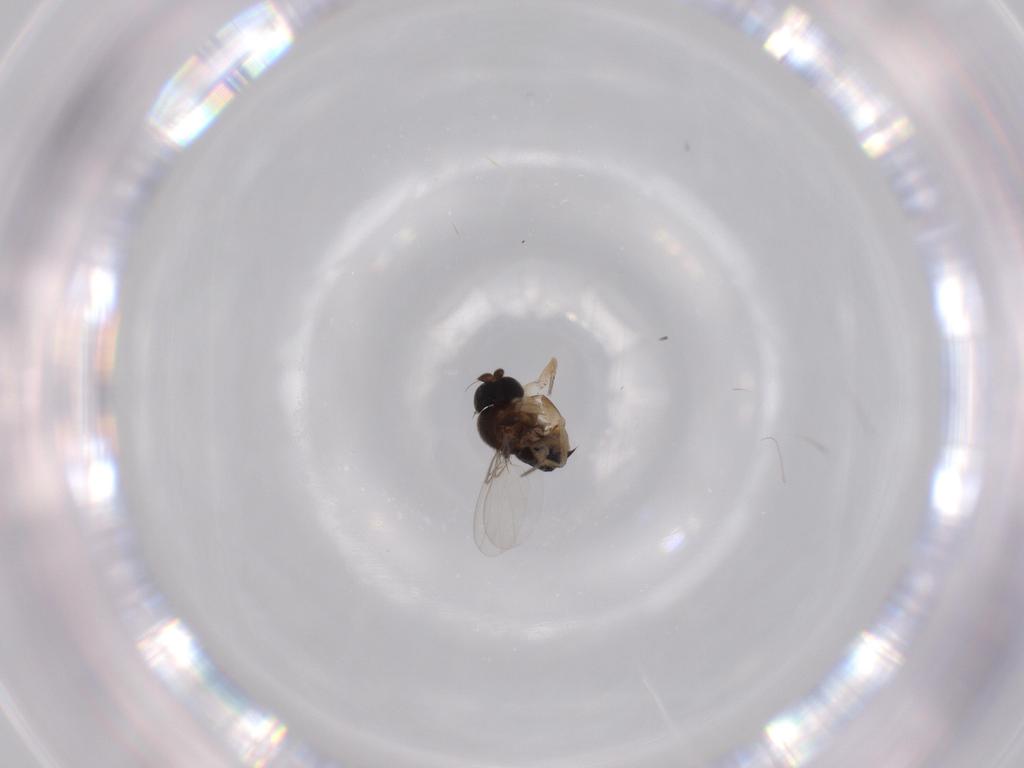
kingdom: Animalia
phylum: Arthropoda
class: Insecta
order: Diptera
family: Phoridae
